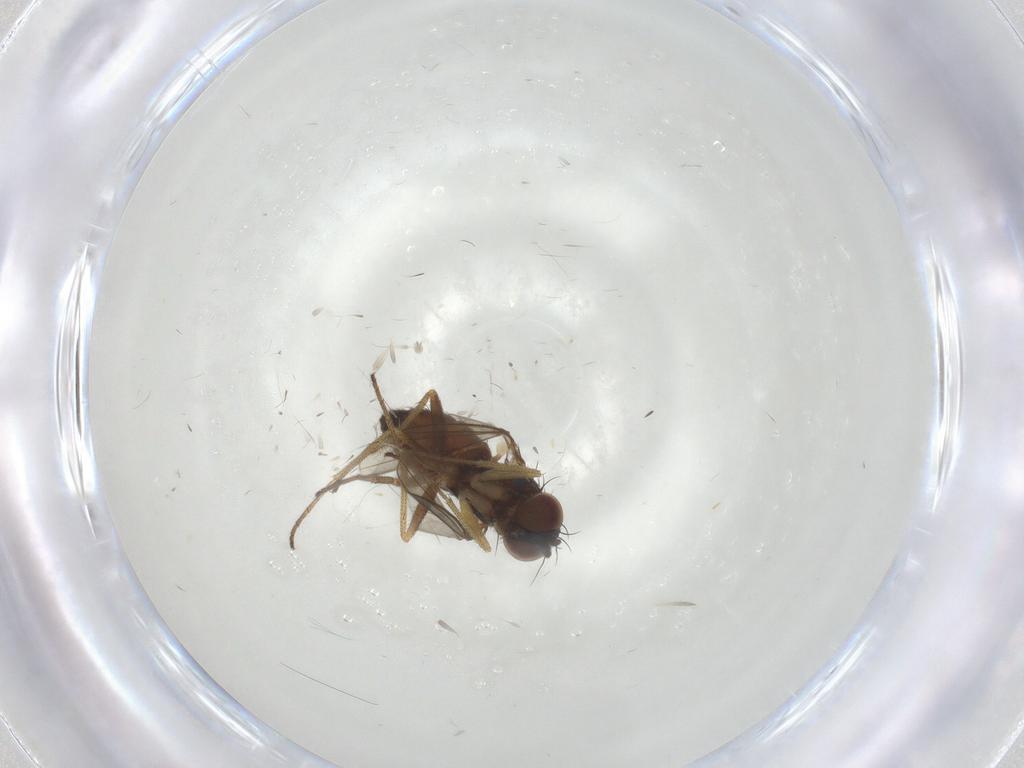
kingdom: Animalia
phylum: Arthropoda
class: Insecta
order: Diptera
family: Dolichopodidae
